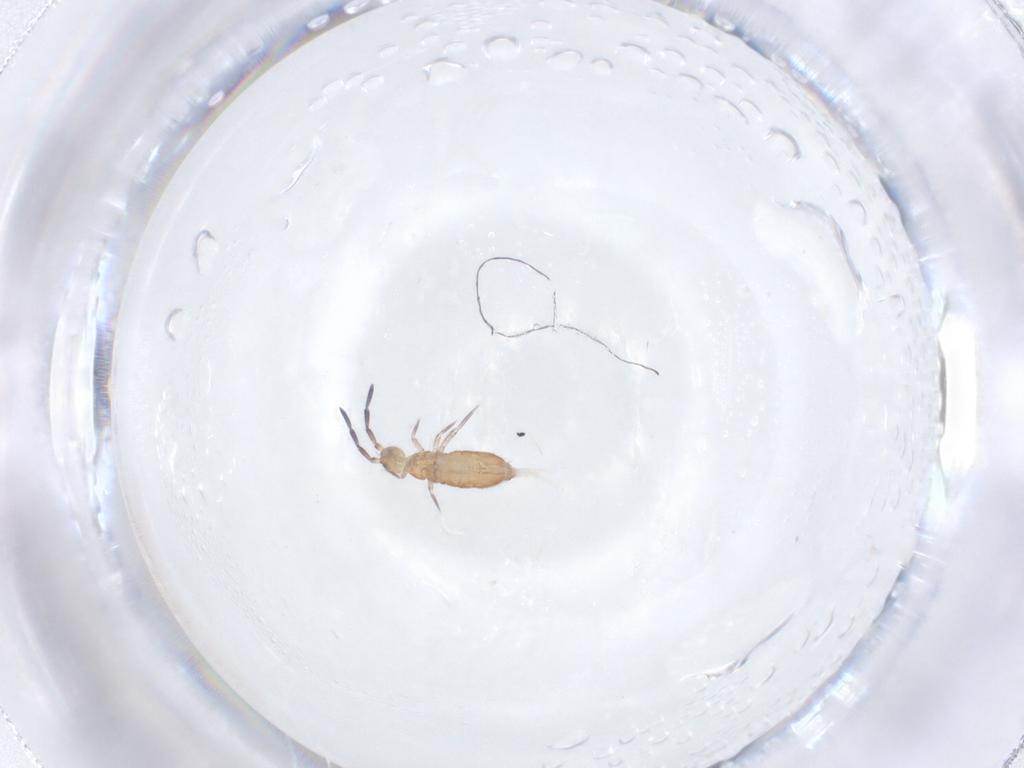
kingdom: Animalia
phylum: Arthropoda
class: Collembola
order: Entomobryomorpha
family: Entomobryidae
